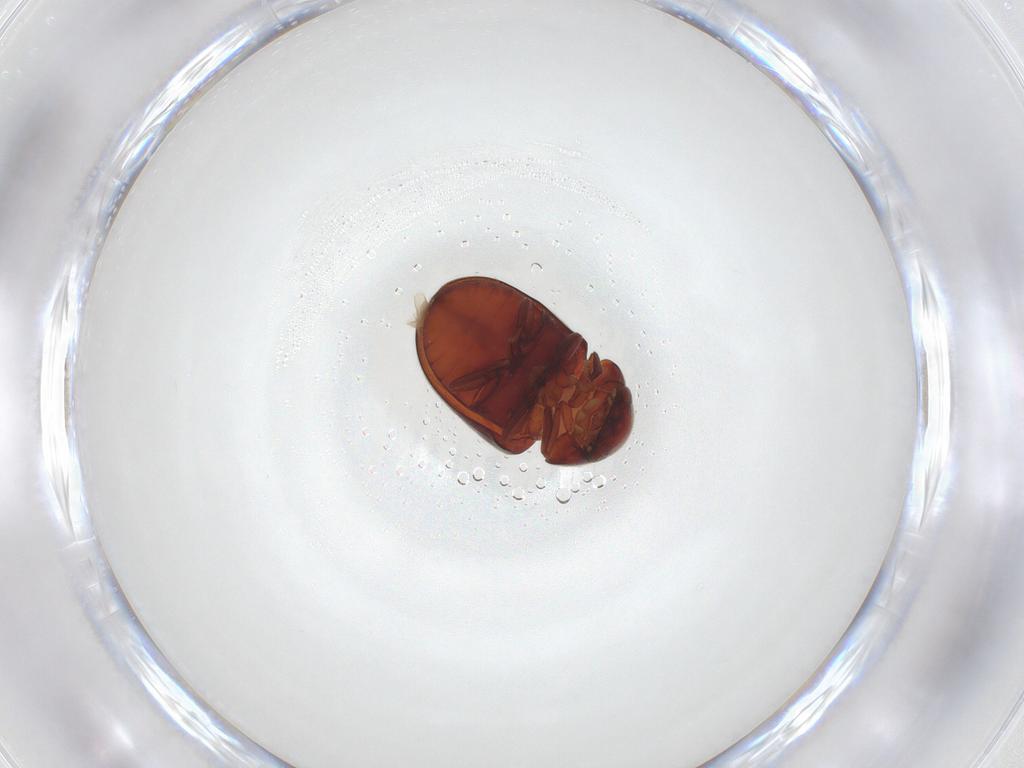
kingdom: Animalia
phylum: Arthropoda
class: Insecta
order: Coleoptera
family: Ptinidae
